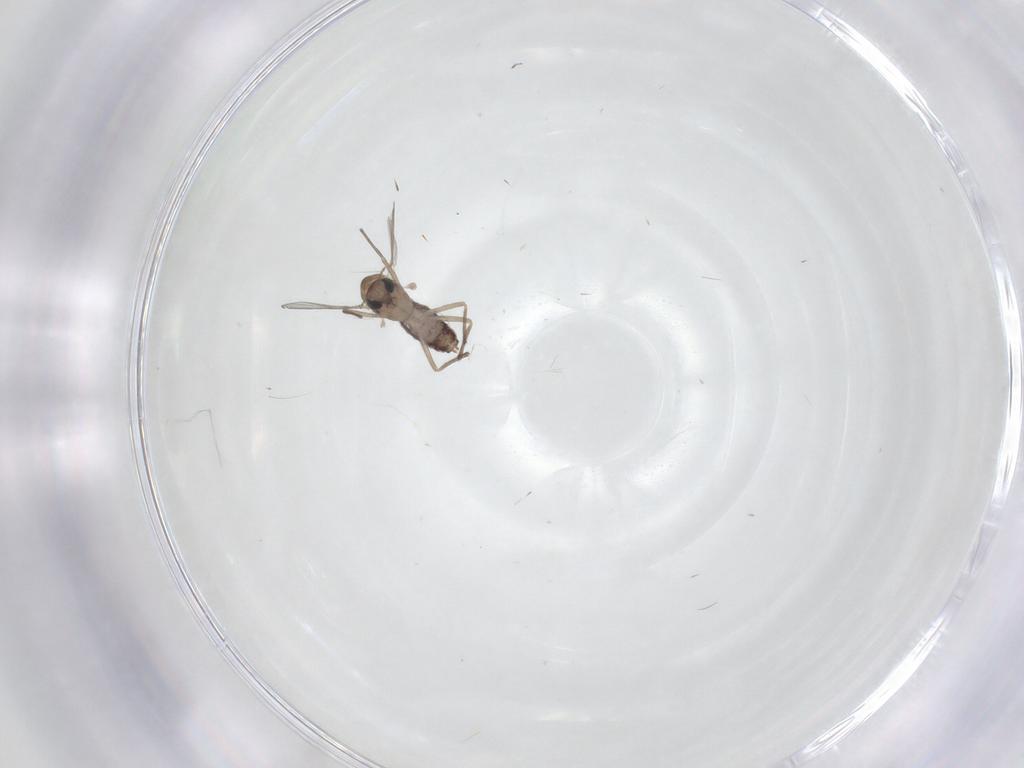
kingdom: Animalia
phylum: Arthropoda
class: Insecta
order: Diptera
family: Chironomidae
